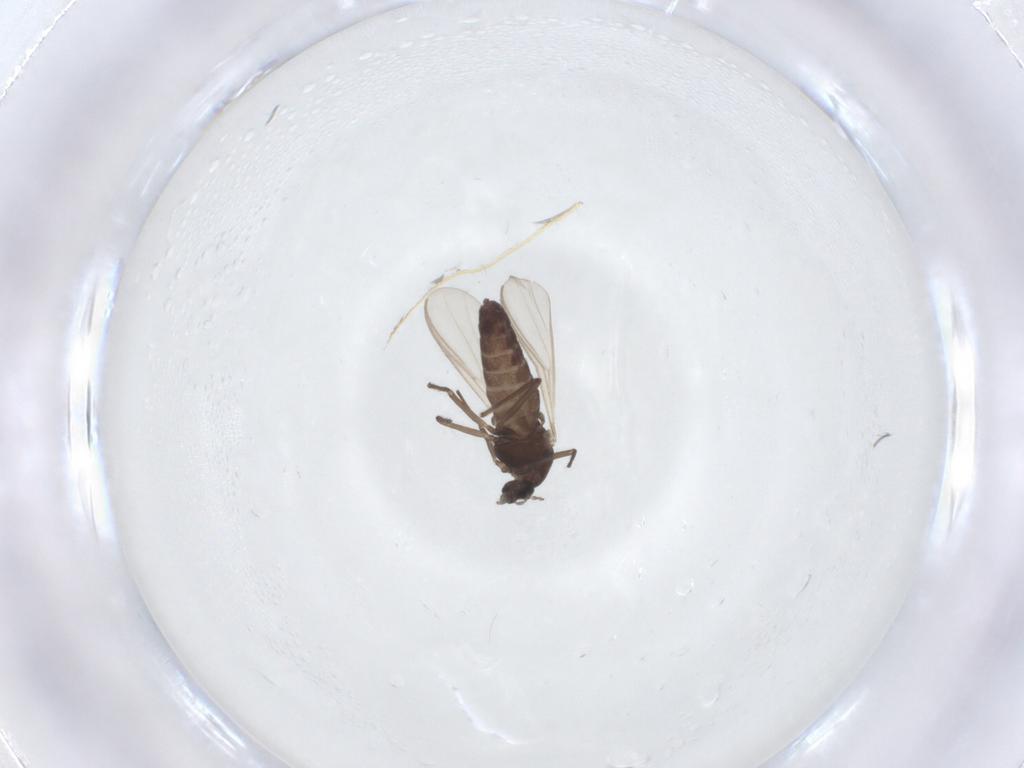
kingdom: Animalia
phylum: Arthropoda
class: Insecta
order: Diptera
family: Chironomidae
